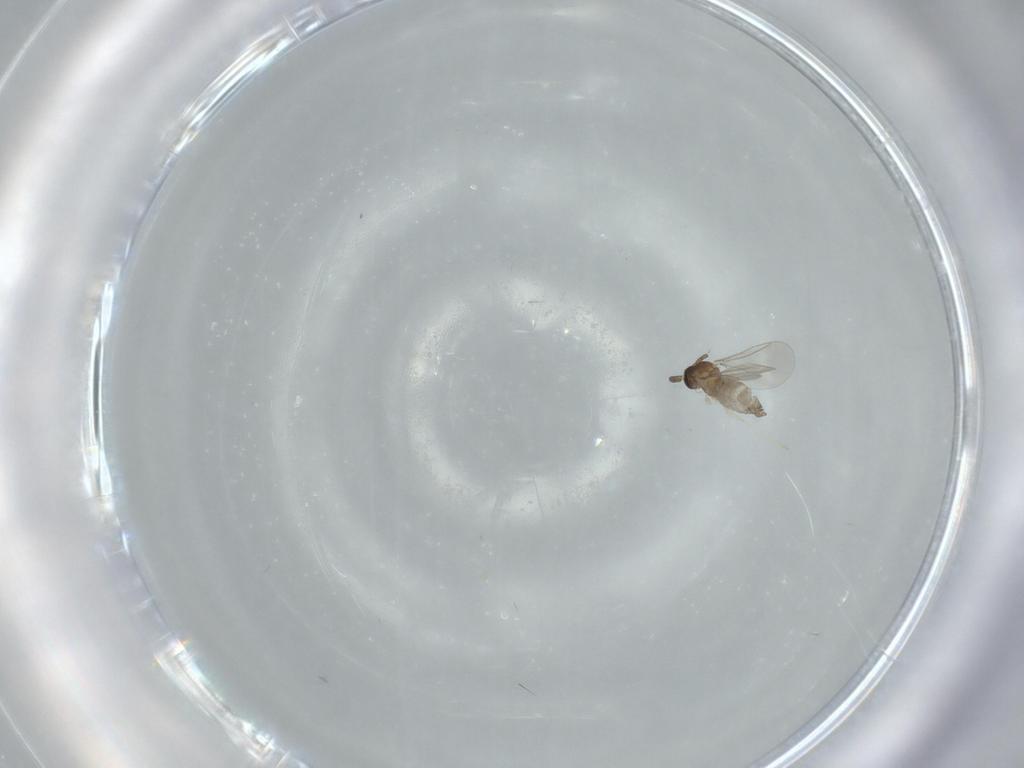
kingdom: Animalia
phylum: Arthropoda
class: Insecta
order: Diptera
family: Cecidomyiidae
